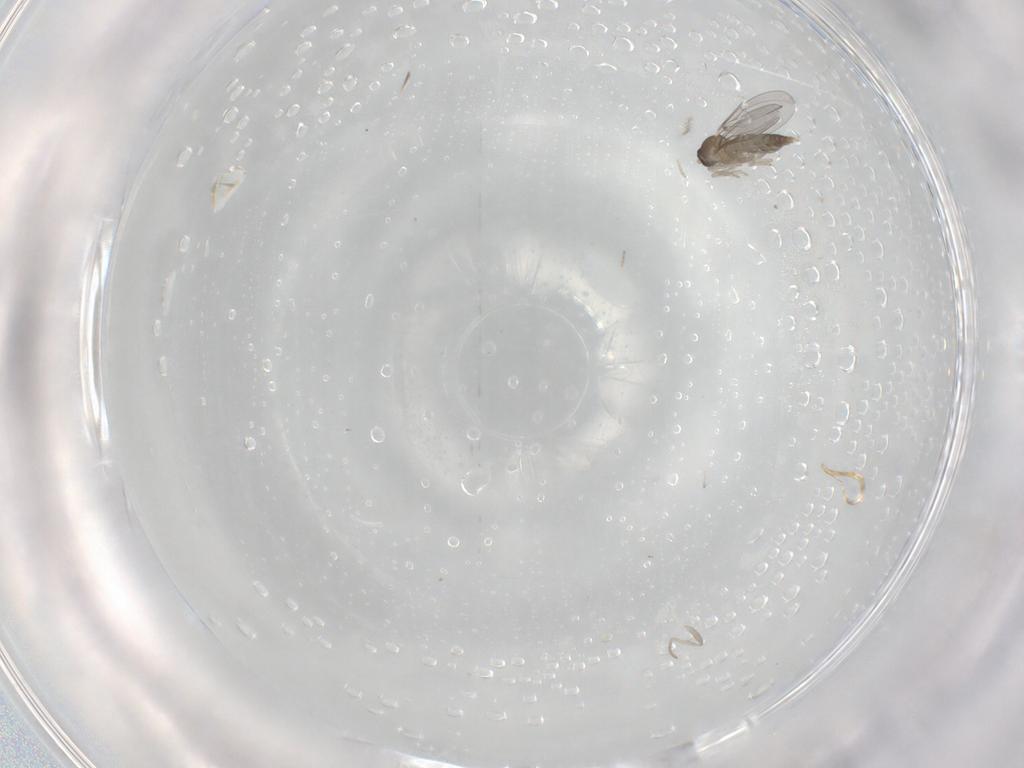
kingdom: Animalia
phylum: Arthropoda
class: Insecta
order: Diptera
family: Cecidomyiidae
